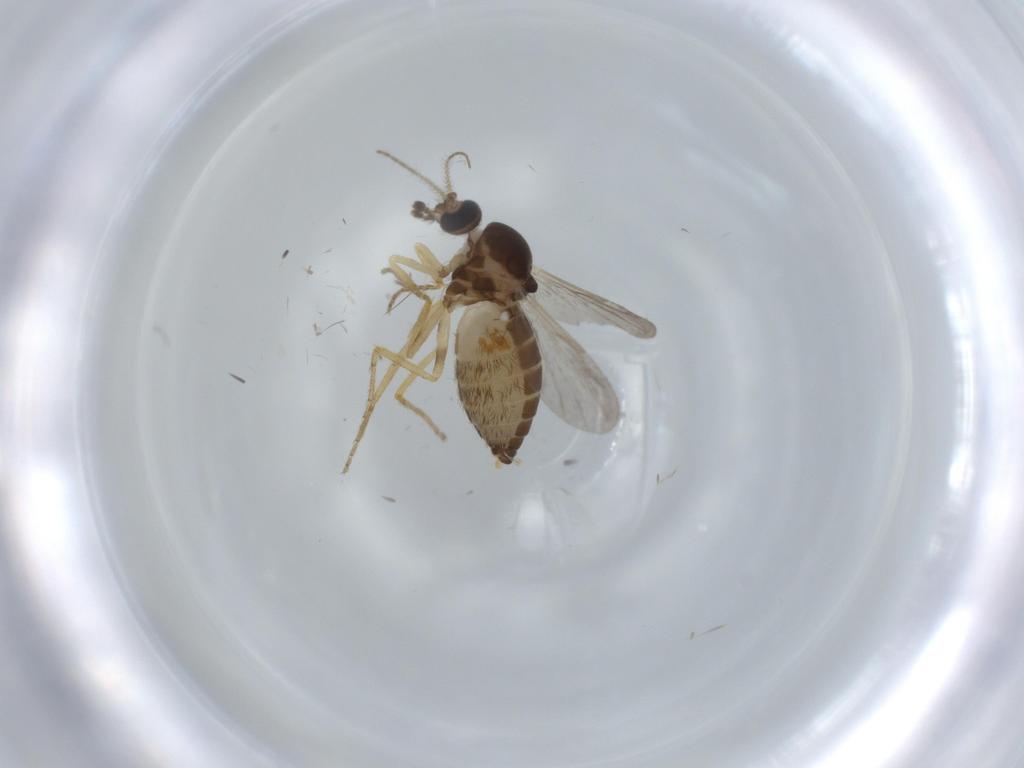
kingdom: Animalia
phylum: Arthropoda
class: Insecta
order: Diptera
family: Ceratopogonidae
